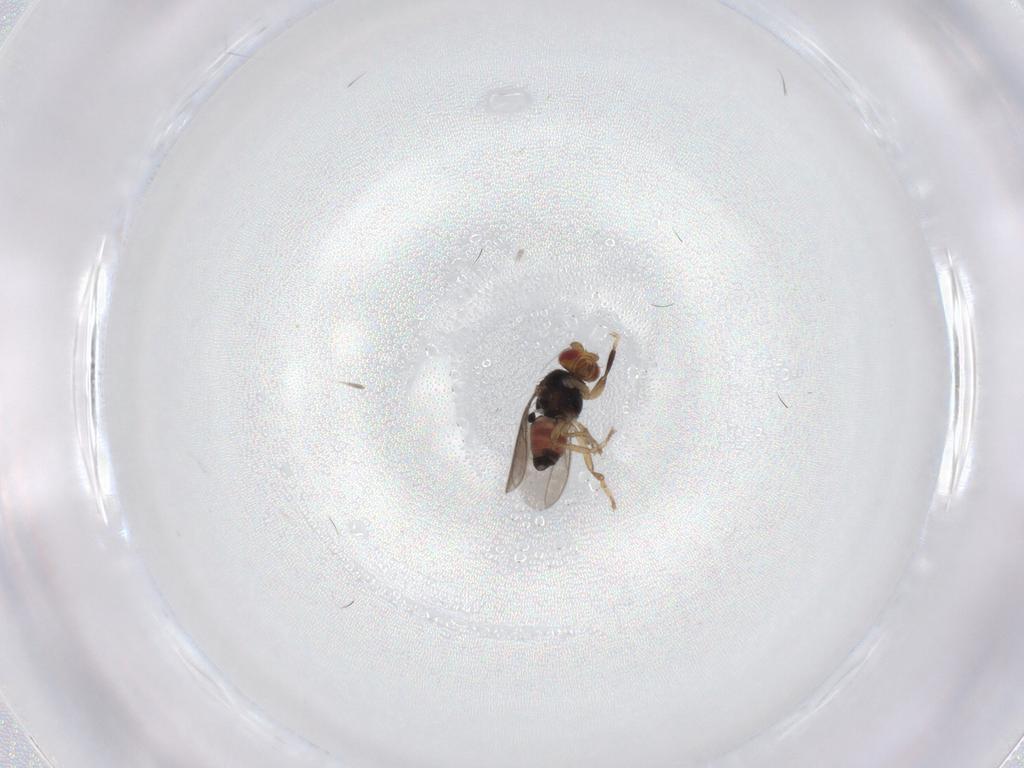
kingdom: Animalia
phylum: Arthropoda
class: Insecta
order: Diptera
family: Sphaeroceridae
